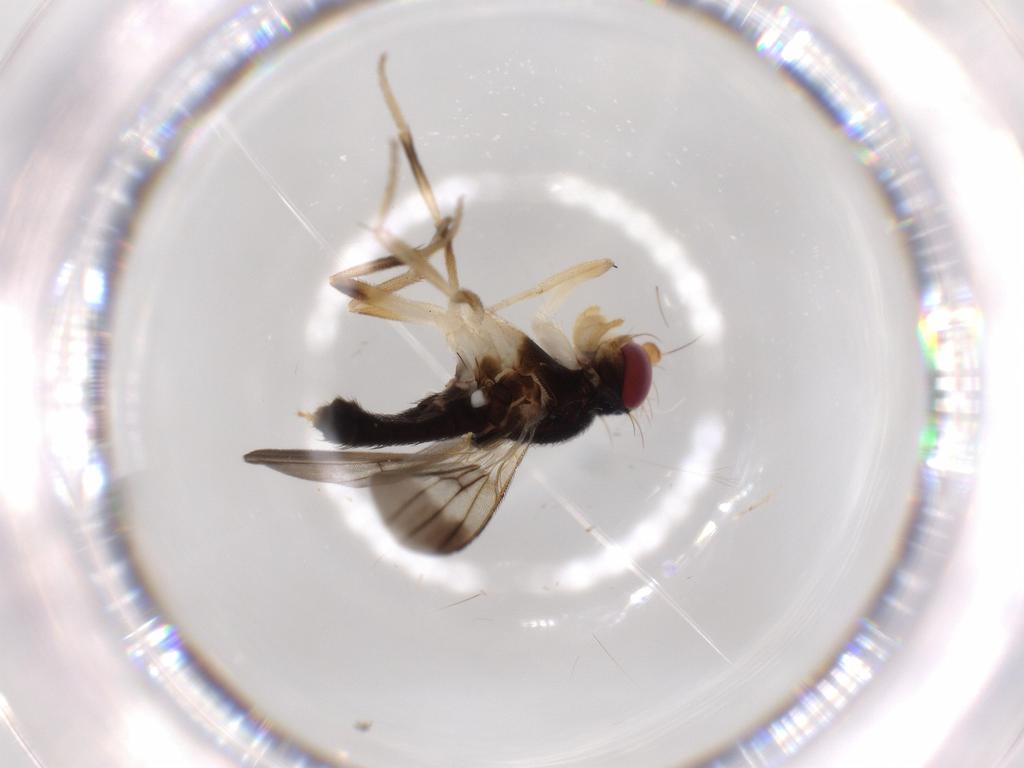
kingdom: Animalia
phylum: Arthropoda
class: Insecta
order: Diptera
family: Clusiidae
